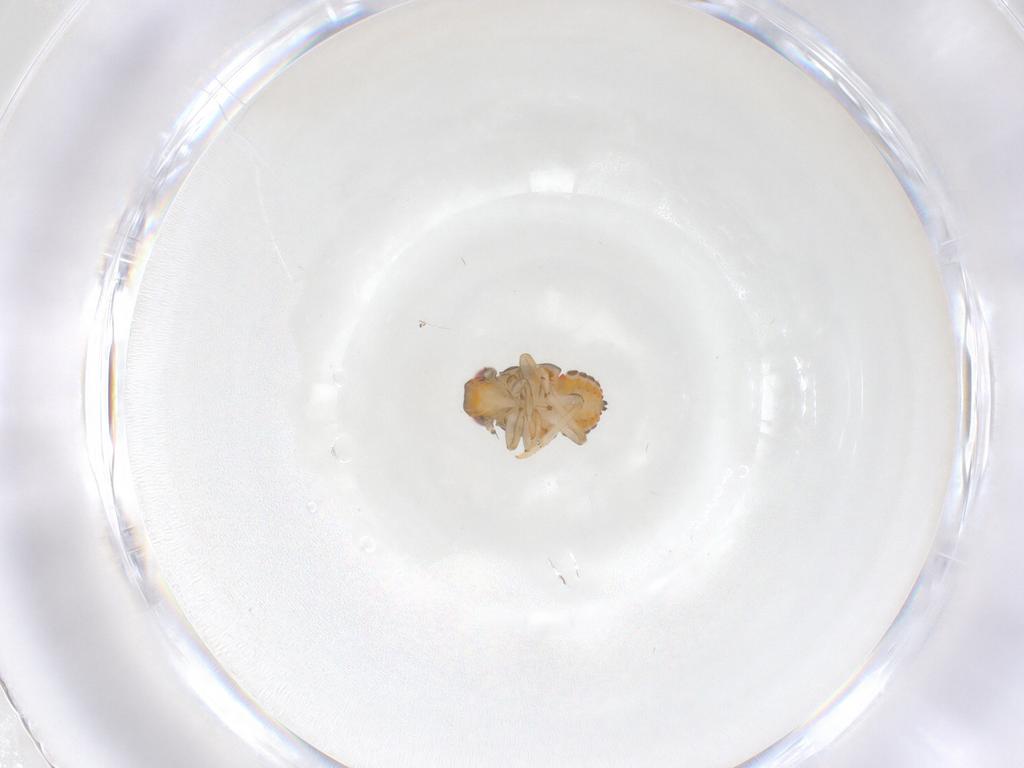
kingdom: Animalia
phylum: Arthropoda
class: Insecta
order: Hemiptera
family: Issidae
